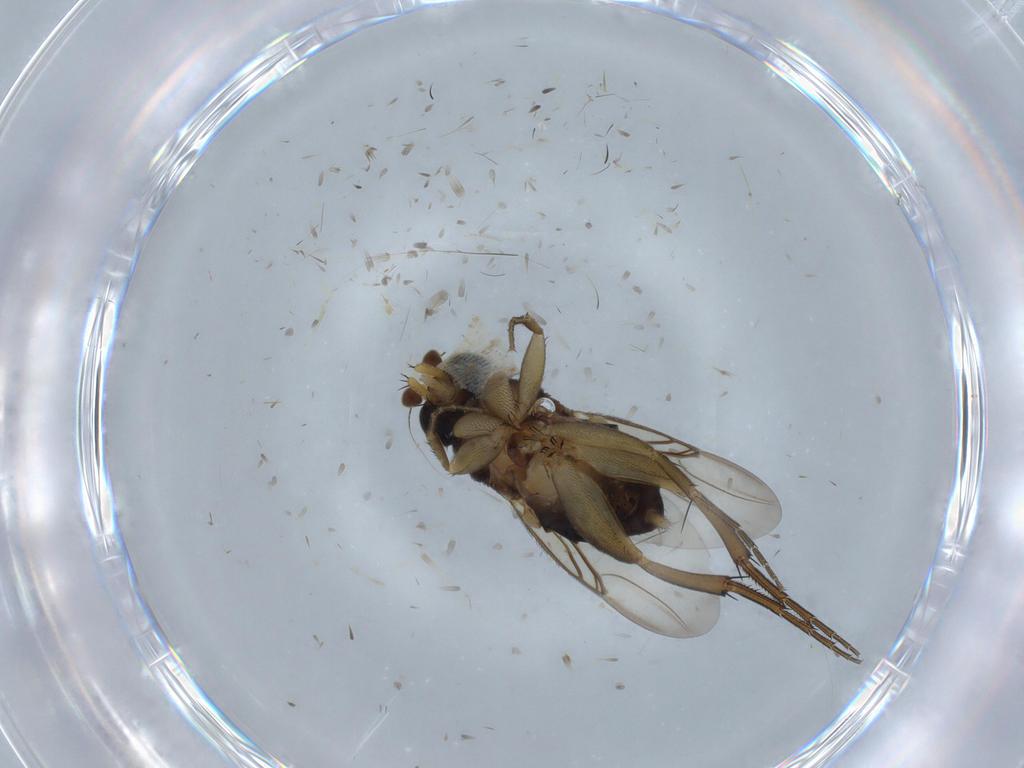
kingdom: Animalia
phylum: Arthropoda
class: Insecta
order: Diptera
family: Phoridae
